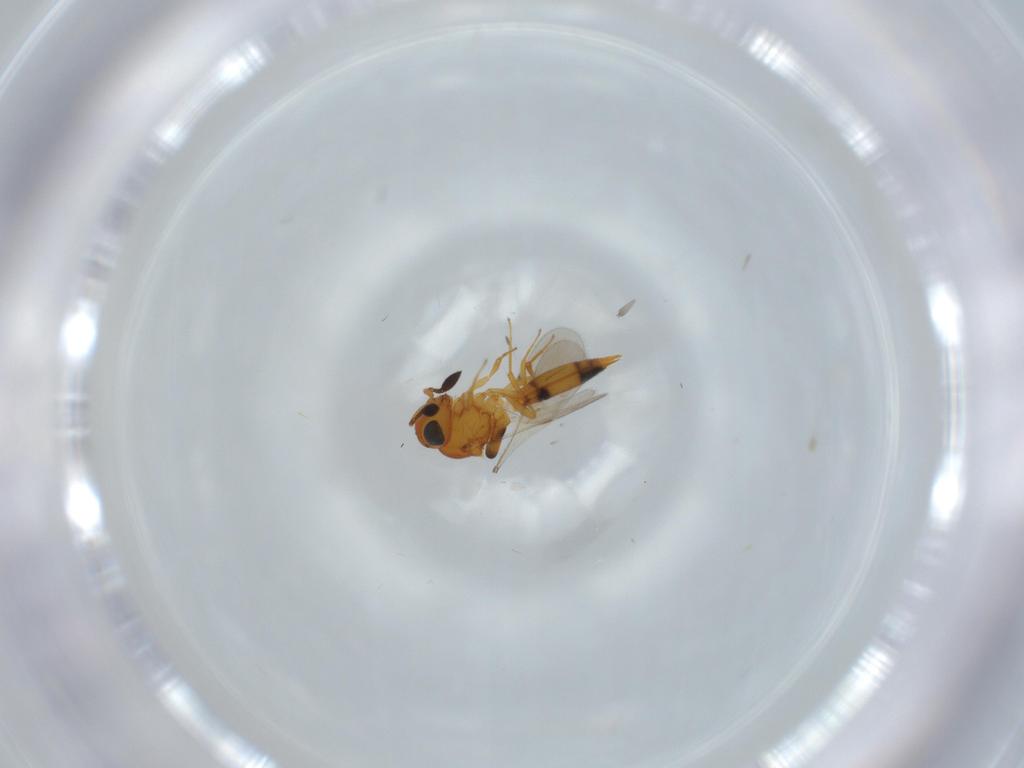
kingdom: Animalia
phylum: Arthropoda
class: Insecta
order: Hymenoptera
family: Scelionidae
